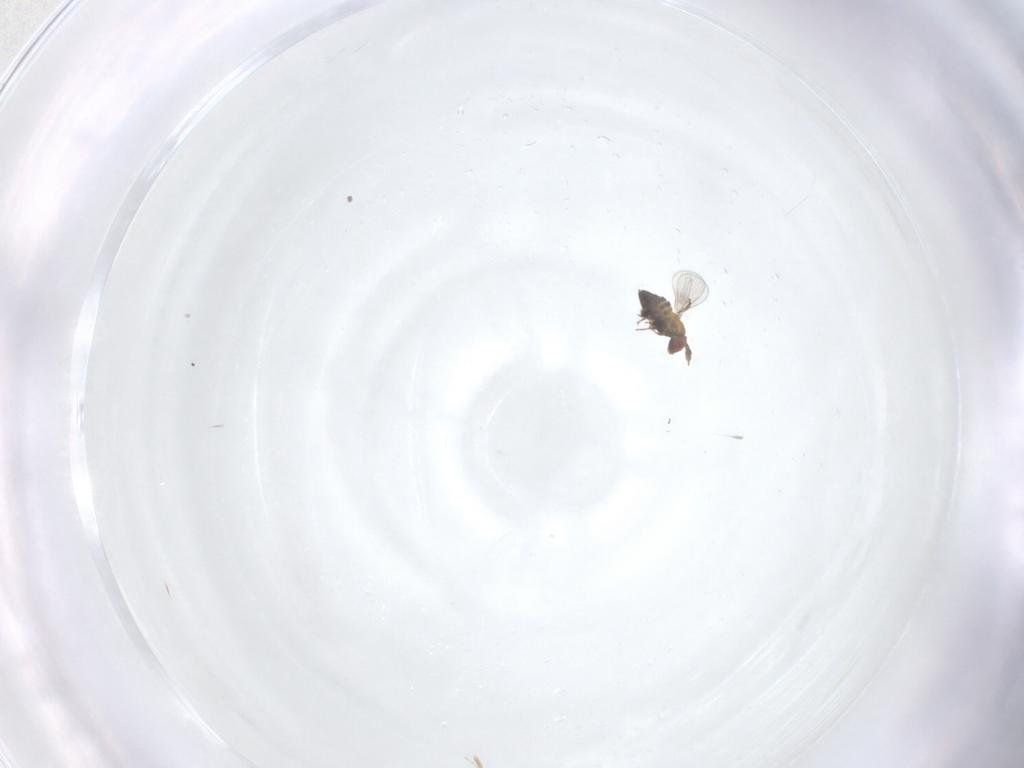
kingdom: Animalia
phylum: Arthropoda
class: Insecta
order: Hymenoptera
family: Trichogrammatidae
